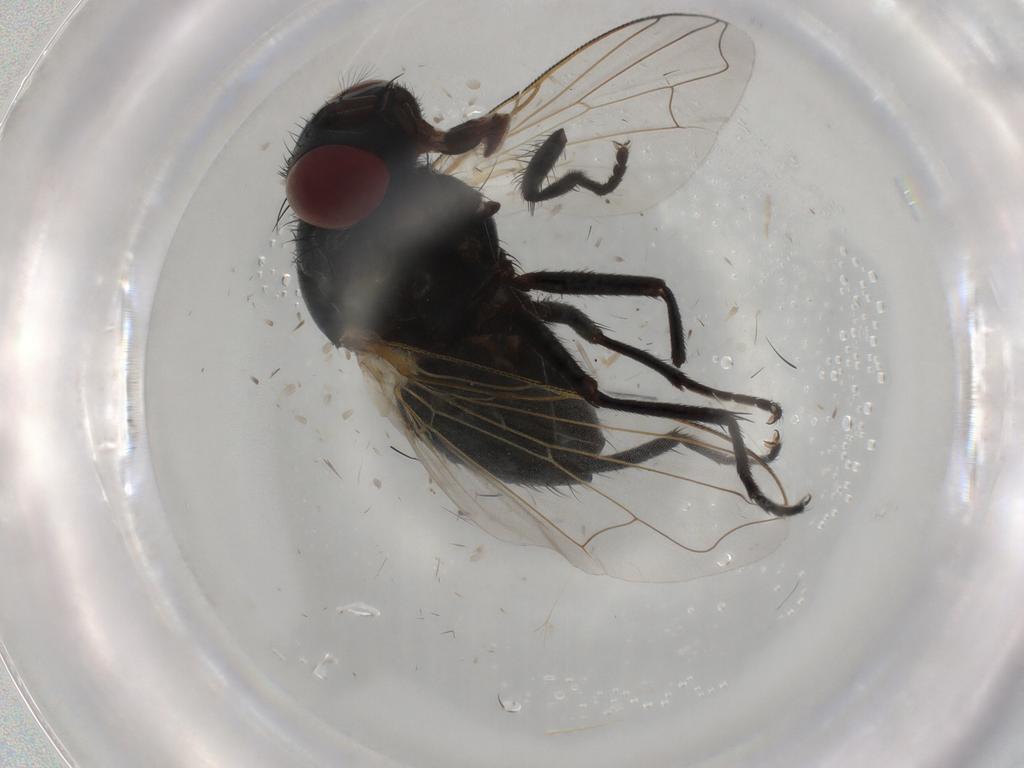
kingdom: Animalia
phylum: Arthropoda
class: Insecta
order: Diptera
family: Muscidae
